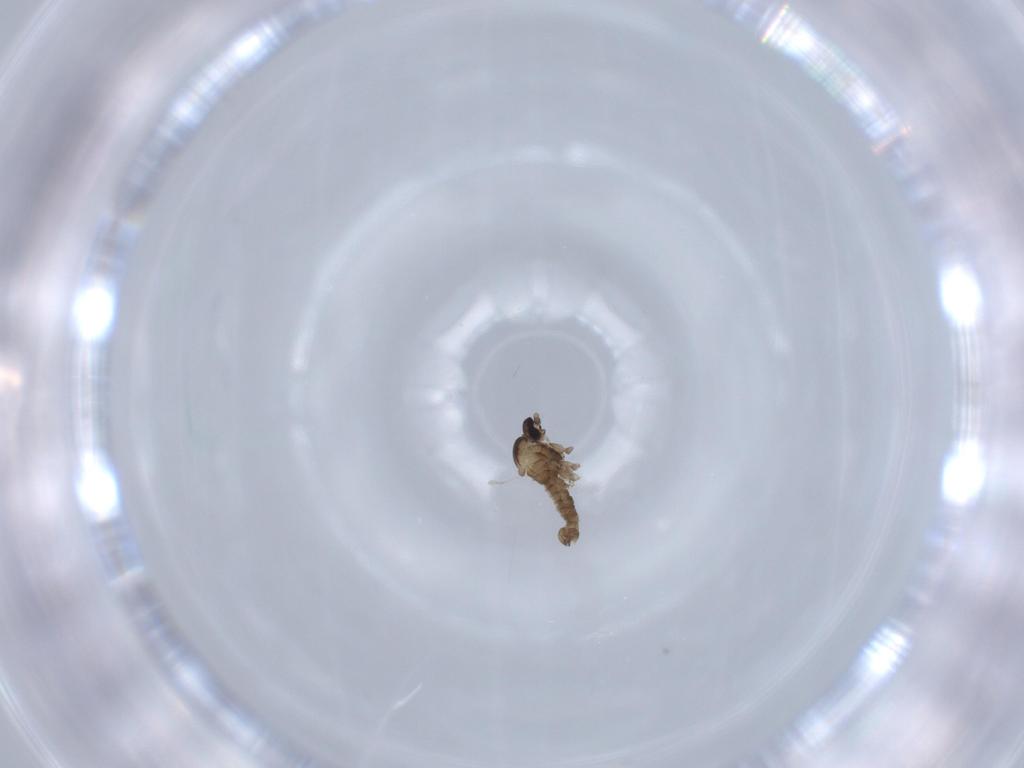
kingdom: Animalia
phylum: Arthropoda
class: Insecta
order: Diptera
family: Cecidomyiidae
